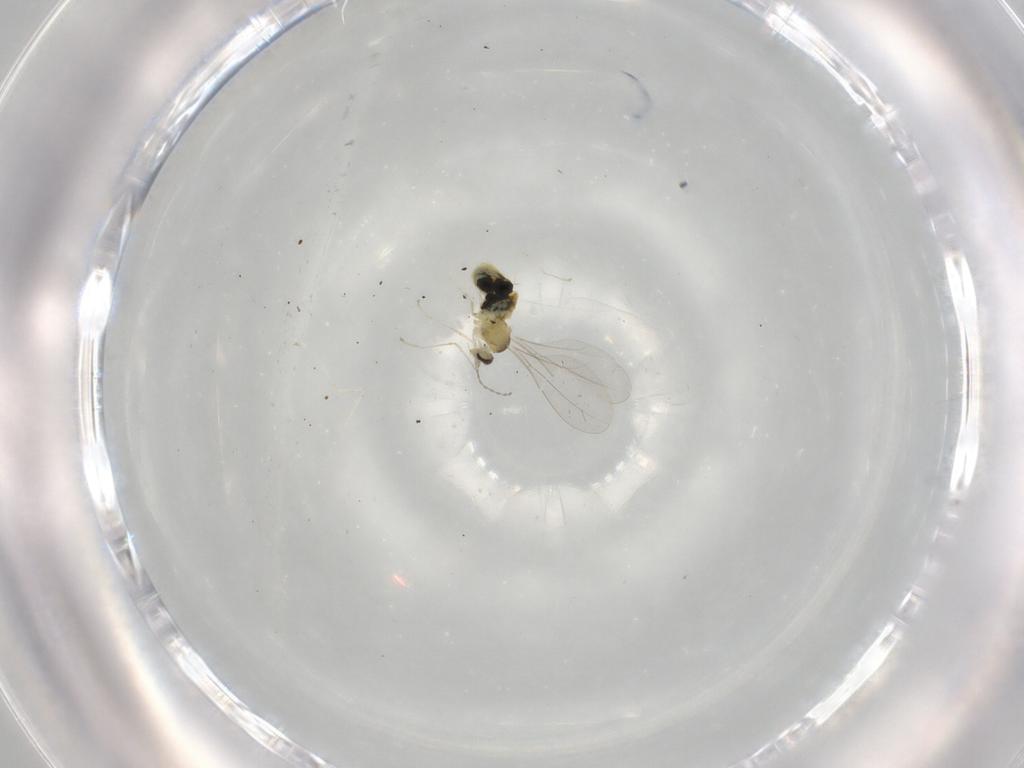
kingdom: Animalia
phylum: Arthropoda
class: Insecta
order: Diptera
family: Cecidomyiidae
